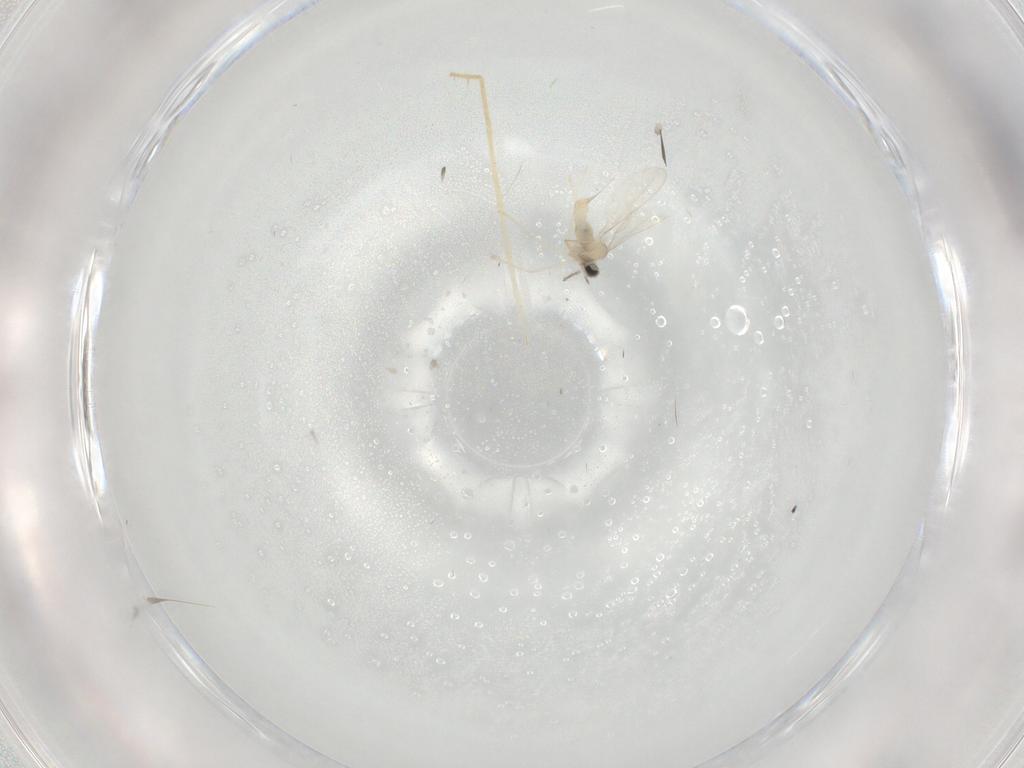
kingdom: Animalia
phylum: Arthropoda
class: Insecta
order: Diptera
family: Chironomidae
